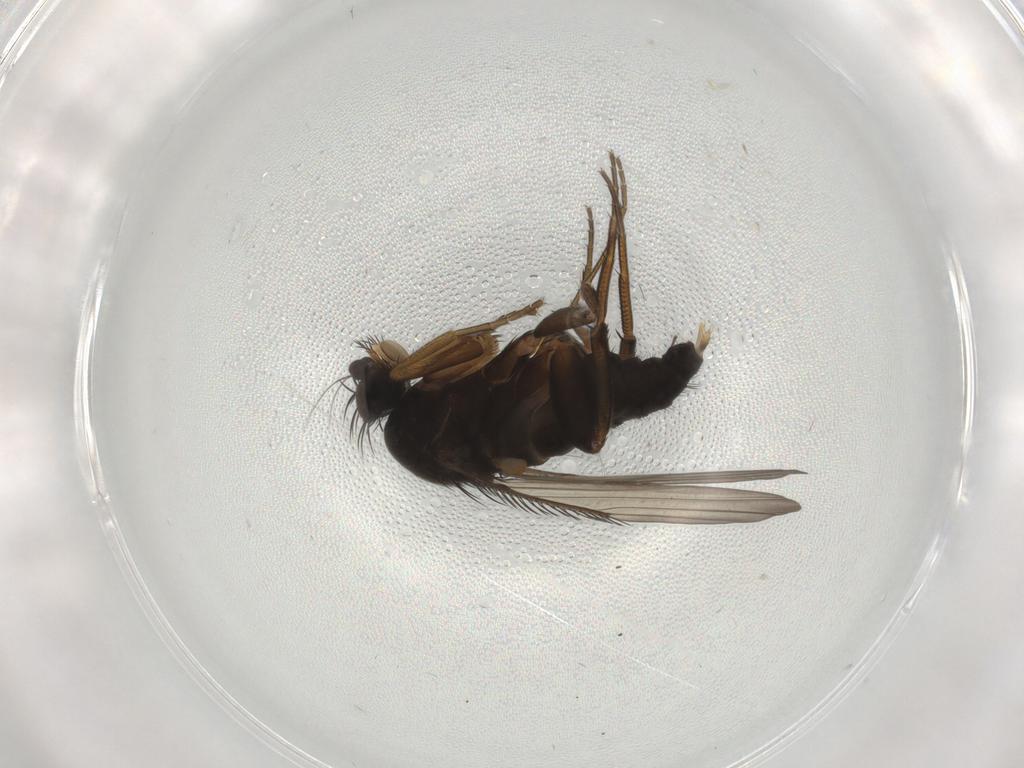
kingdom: Animalia
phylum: Arthropoda
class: Insecta
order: Diptera
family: Phoridae
